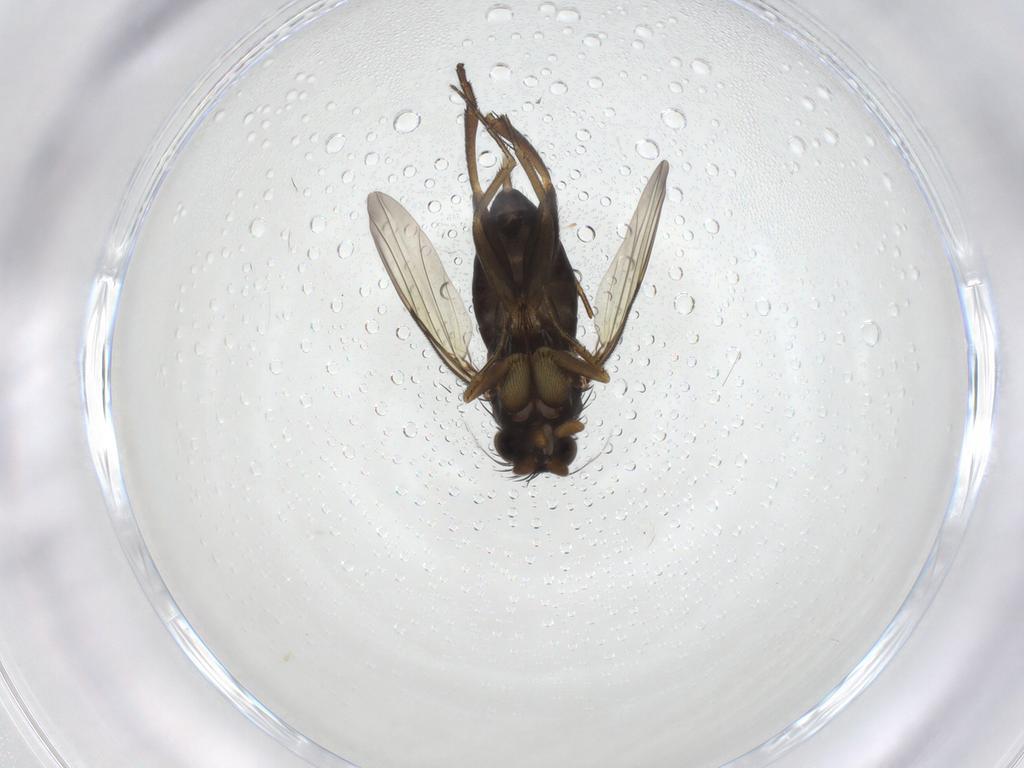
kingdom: Animalia
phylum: Arthropoda
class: Insecta
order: Diptera
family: Phoridae
